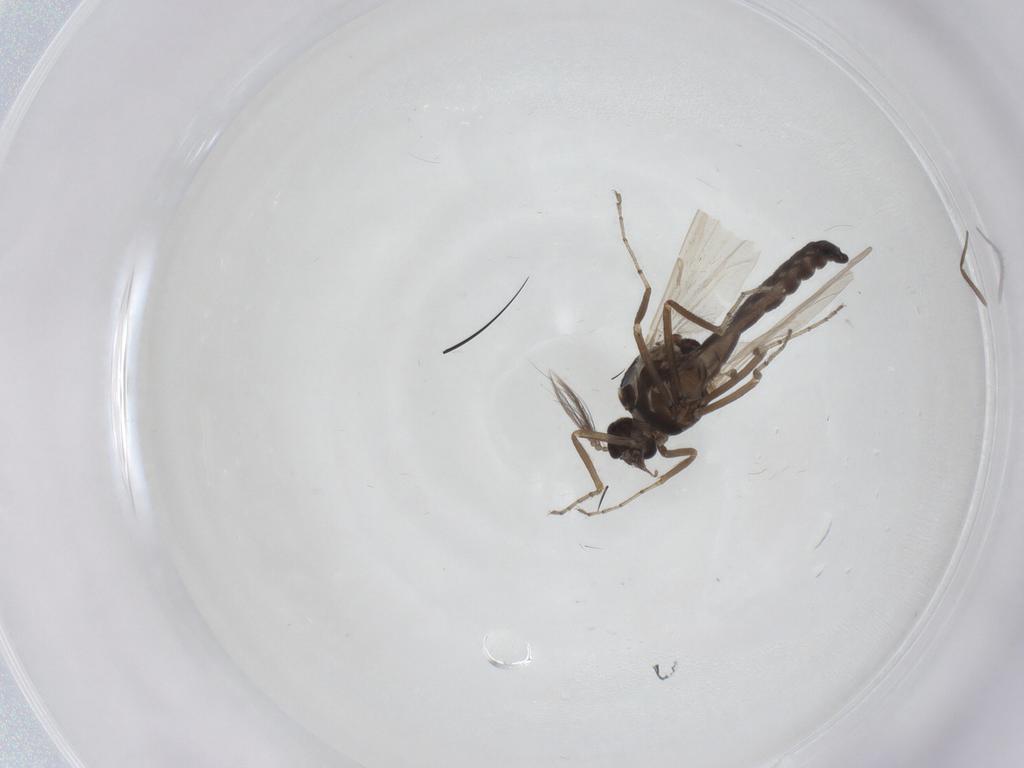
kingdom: Animalia
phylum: Arthropoda
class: Insecta
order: Diptera
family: Ceratopogonidae
